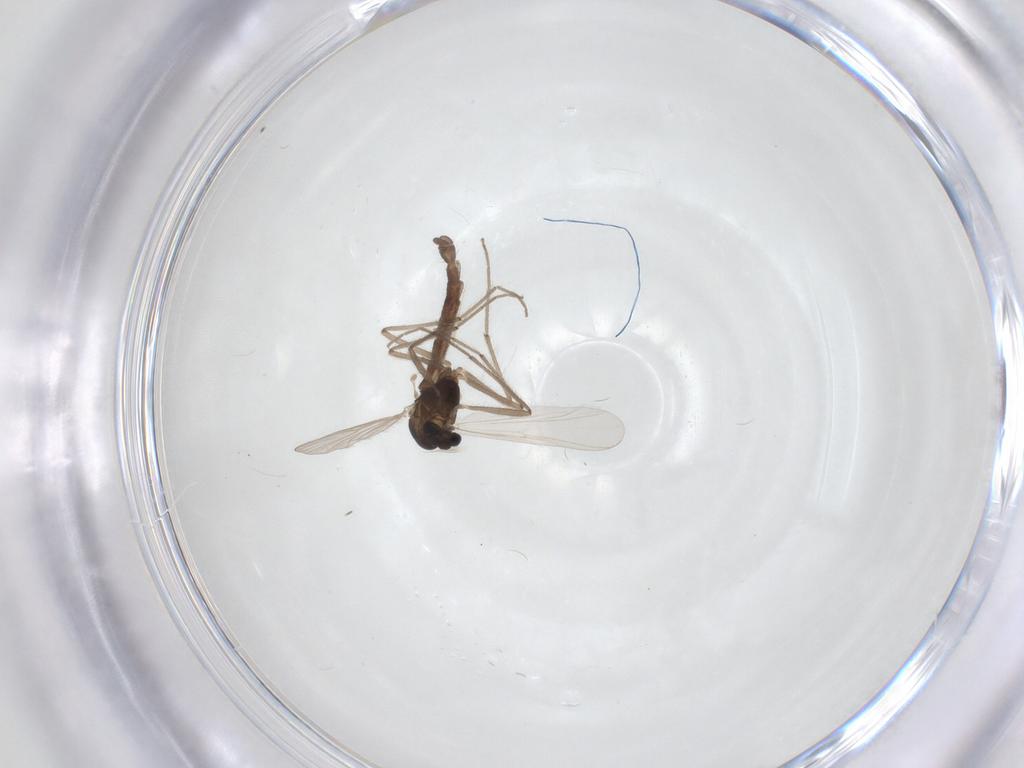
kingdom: Animalia
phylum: Arthropoda
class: Insecta
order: Diptera
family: Chironomidae
